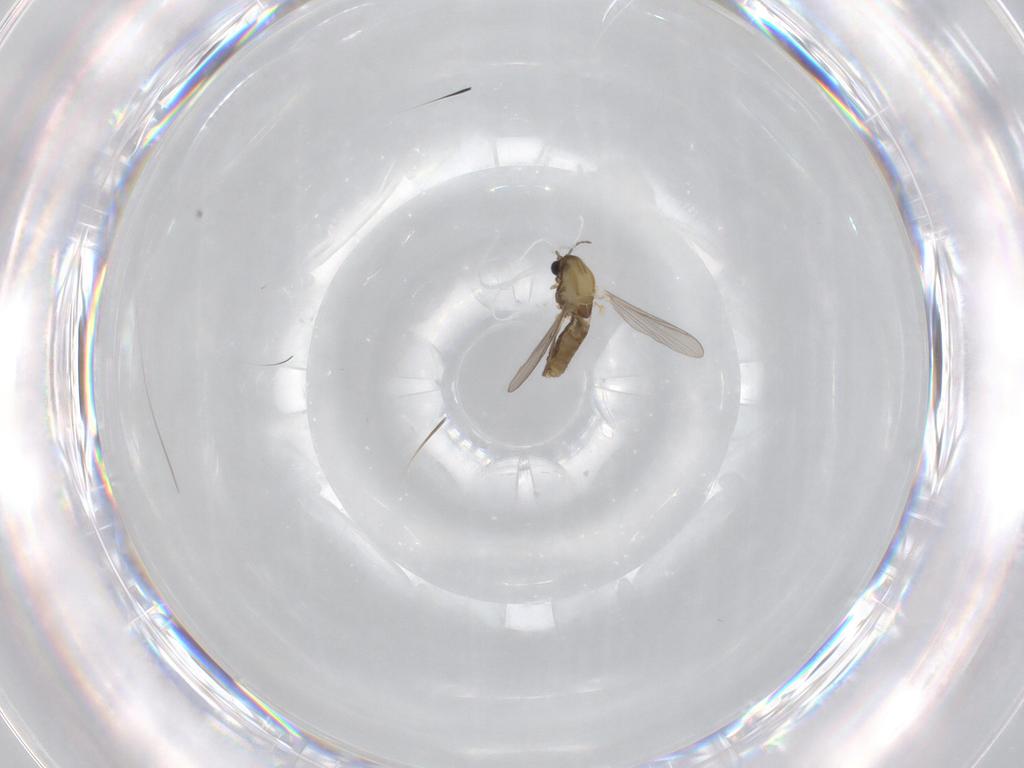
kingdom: Animalia
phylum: Arthropoda
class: Insecta
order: Diptera
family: Chironomidae
